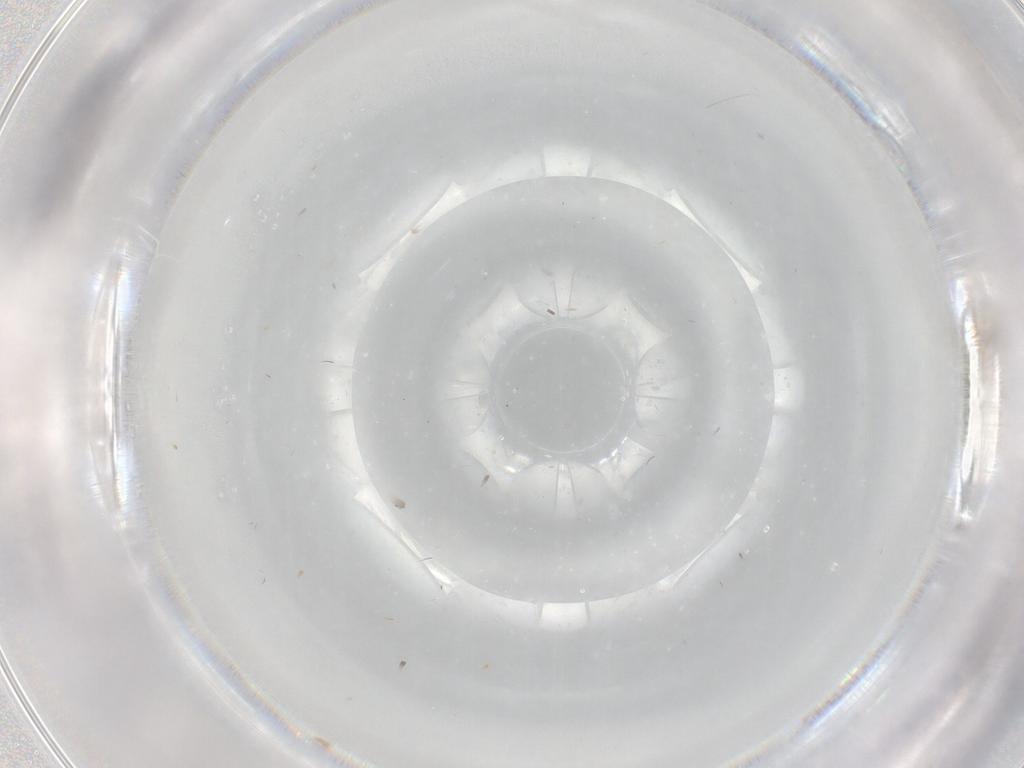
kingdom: Animalia
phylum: Arthropoda
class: Insecta
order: Diptera
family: Cecidomyiidae
